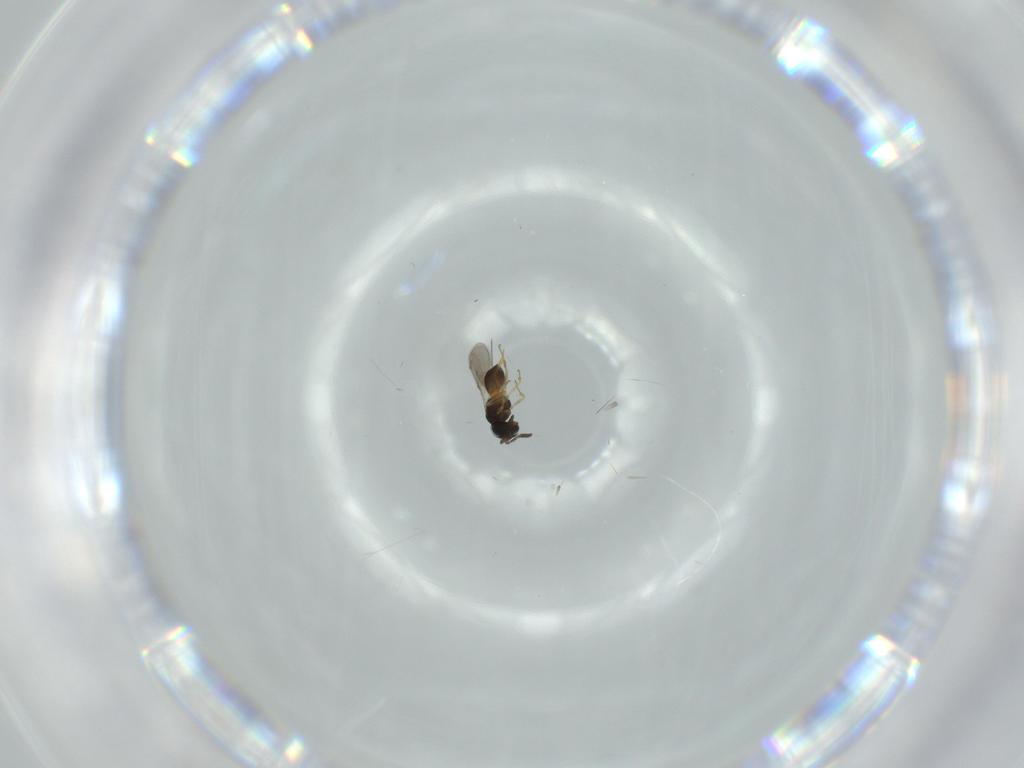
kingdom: Animalia
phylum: Arthropoda
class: Insecta
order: Hymenoptera
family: Scelionidae
